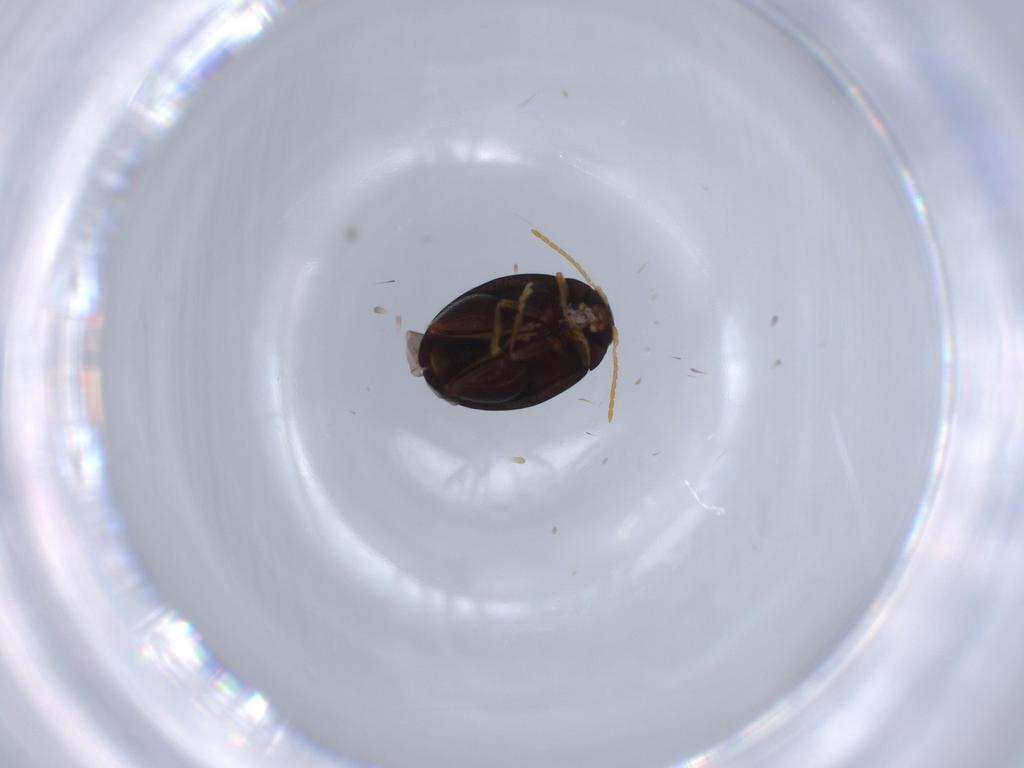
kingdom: Animalia
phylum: Arthropoda
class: Insecta
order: Coleoptera
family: Chrysomelidae
